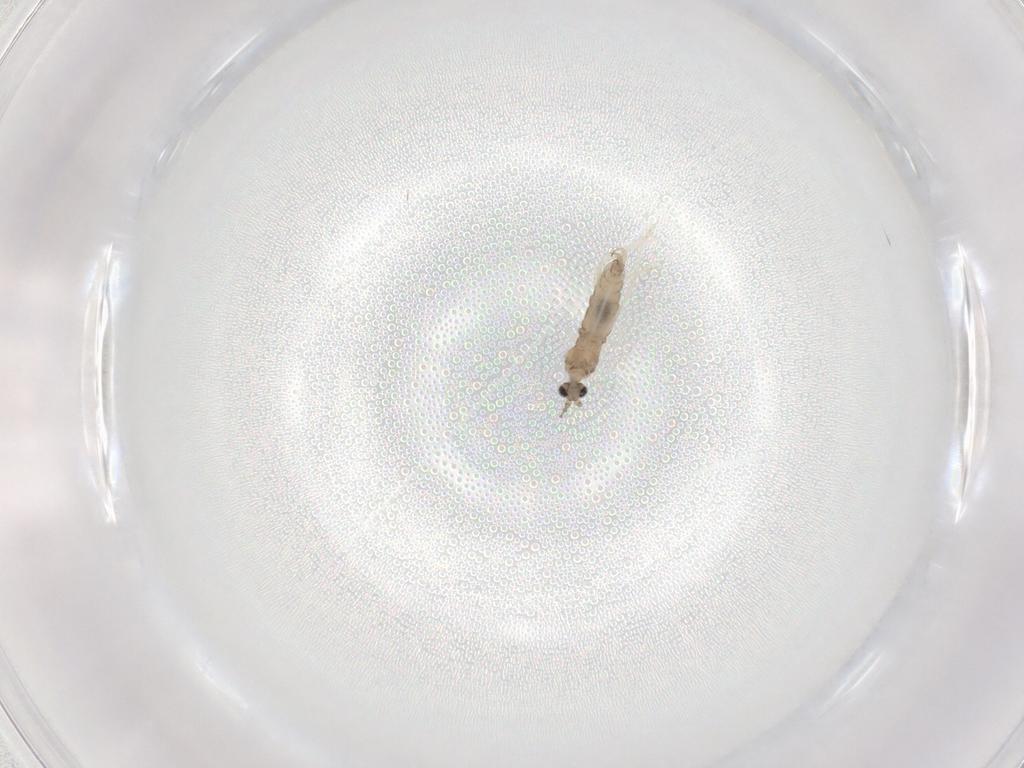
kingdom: Animalia
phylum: Arthropoda
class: Insecta
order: Diptera
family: Cecidomyiidae
